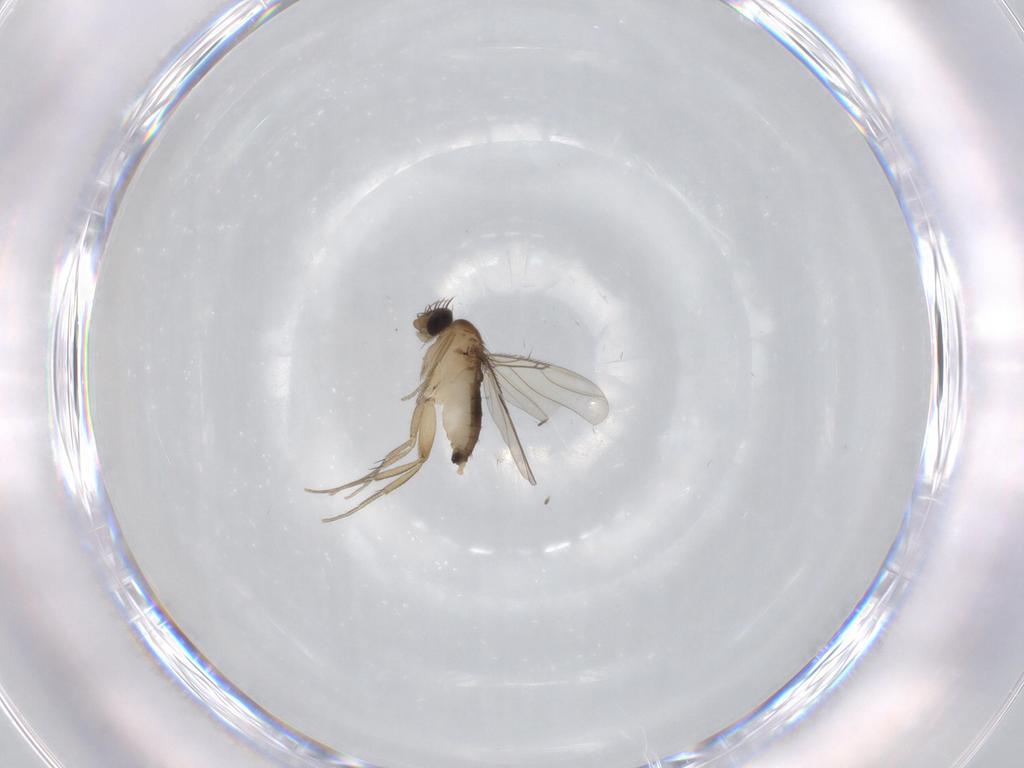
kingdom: Animalia
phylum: Arthropoda
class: Insecta
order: Diptera
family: Phoridae
